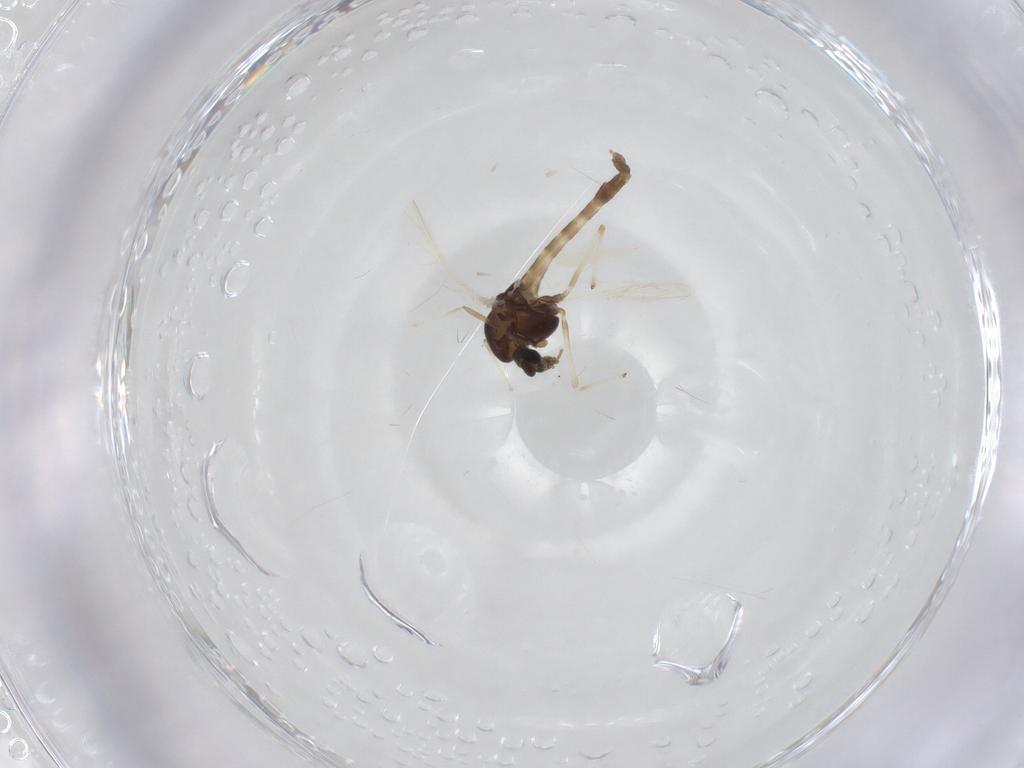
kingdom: Animalia
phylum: Arthropoda
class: Insecta
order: Diptera
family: Chironomidae
